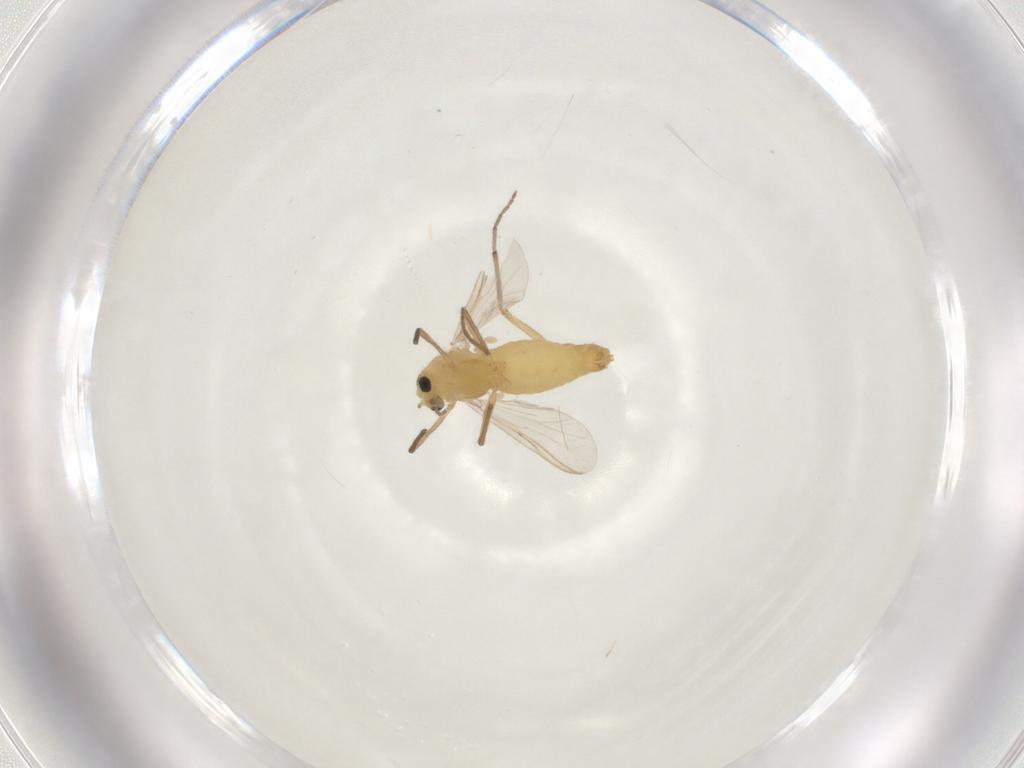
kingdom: Animalia
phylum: Arthropoda
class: Insecta
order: Diptera
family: Chironomidae
